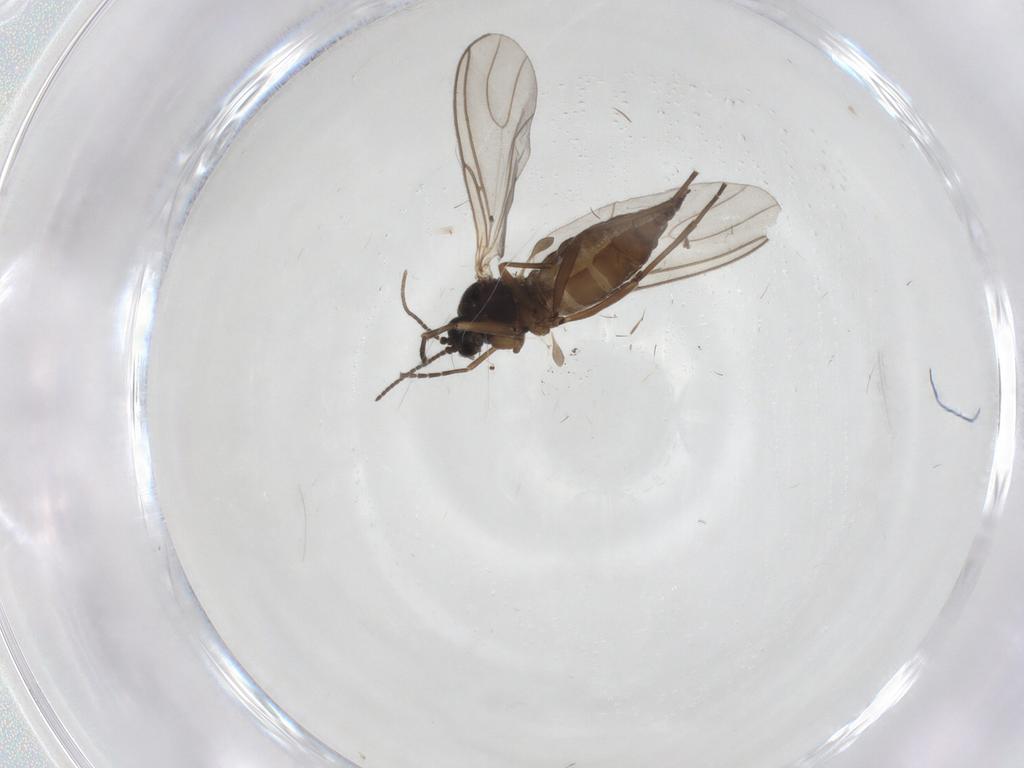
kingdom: Animalia
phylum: Arthropoda
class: Insecta
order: Diptera
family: Sciaridae
